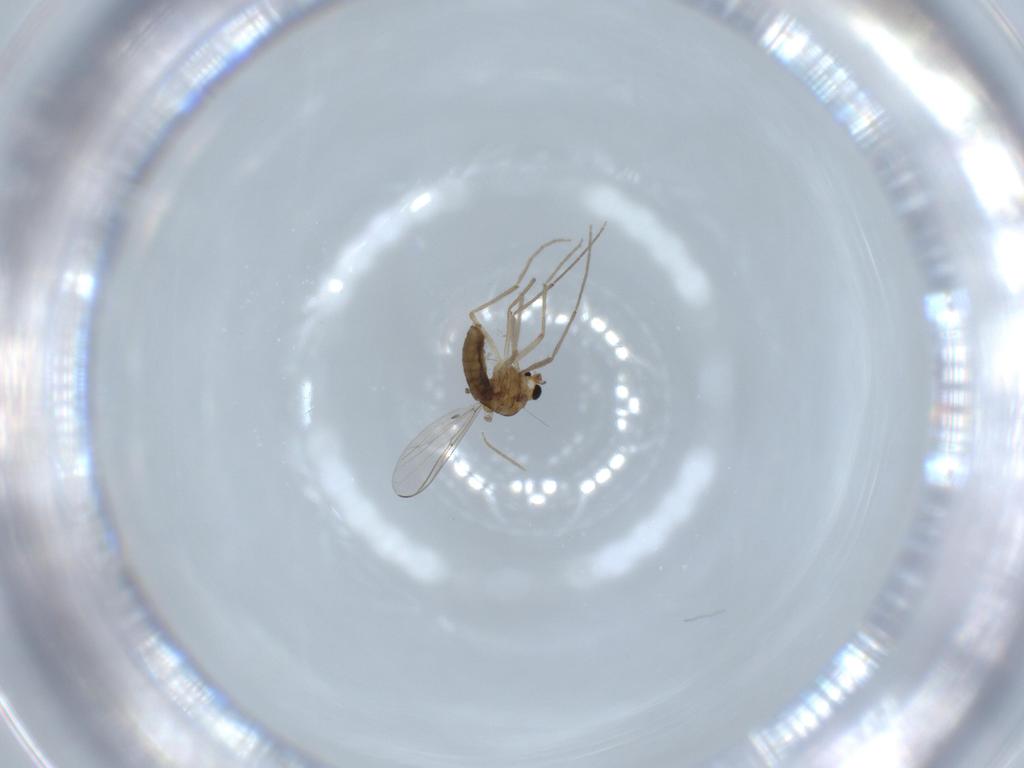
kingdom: Animalia
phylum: Arthropoda
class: Insecta
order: Diptera
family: Chironomidae
